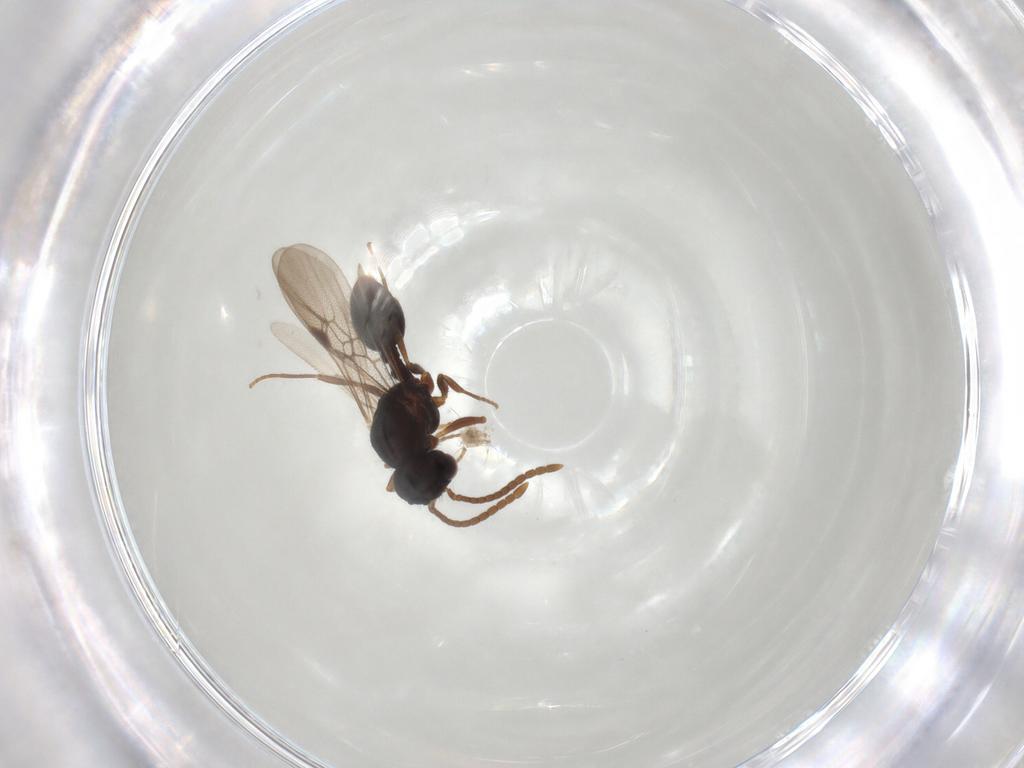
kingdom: Animalia
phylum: Arthropoda
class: Insecta
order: Hymenoptera
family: Formicidae
